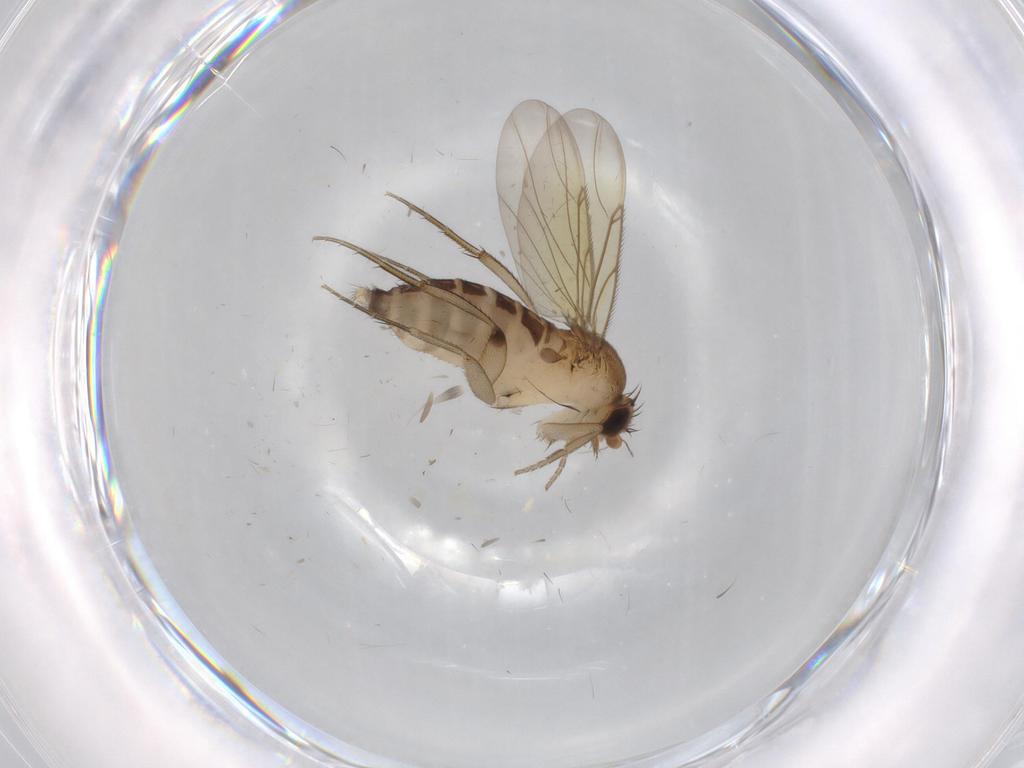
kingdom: Animalia
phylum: Arthropoda
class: Insecta
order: Diptera
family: Phoridae
